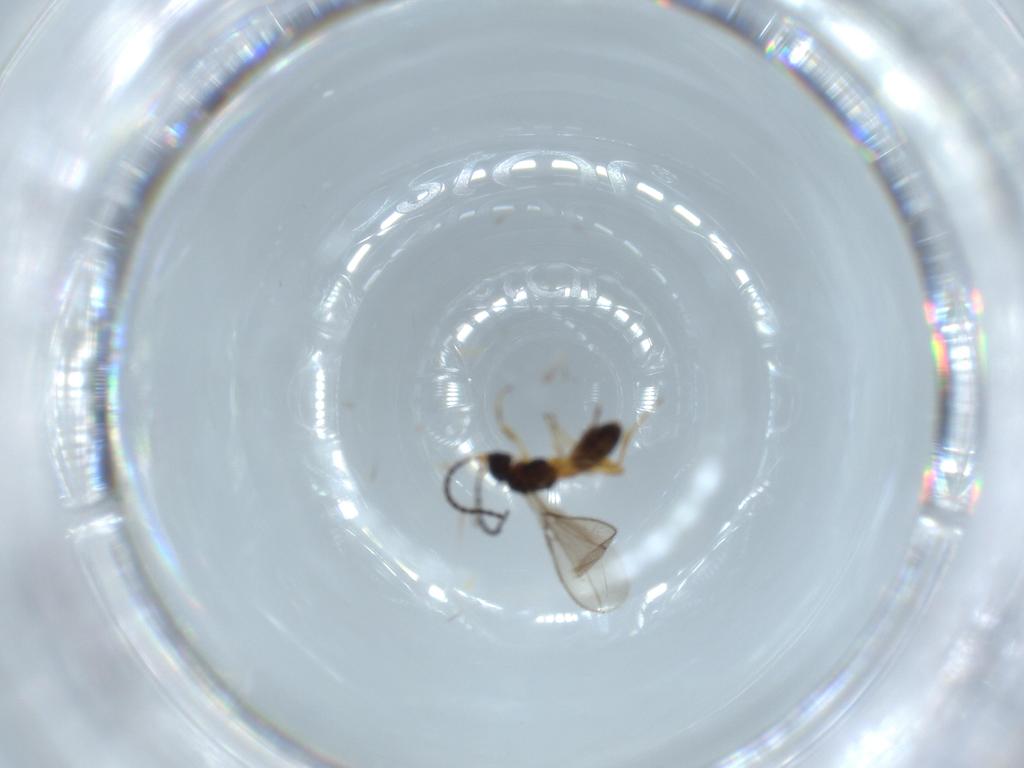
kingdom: Animalia
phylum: Arthropoda
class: Insecta
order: Hymenoptera
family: Braconidae
